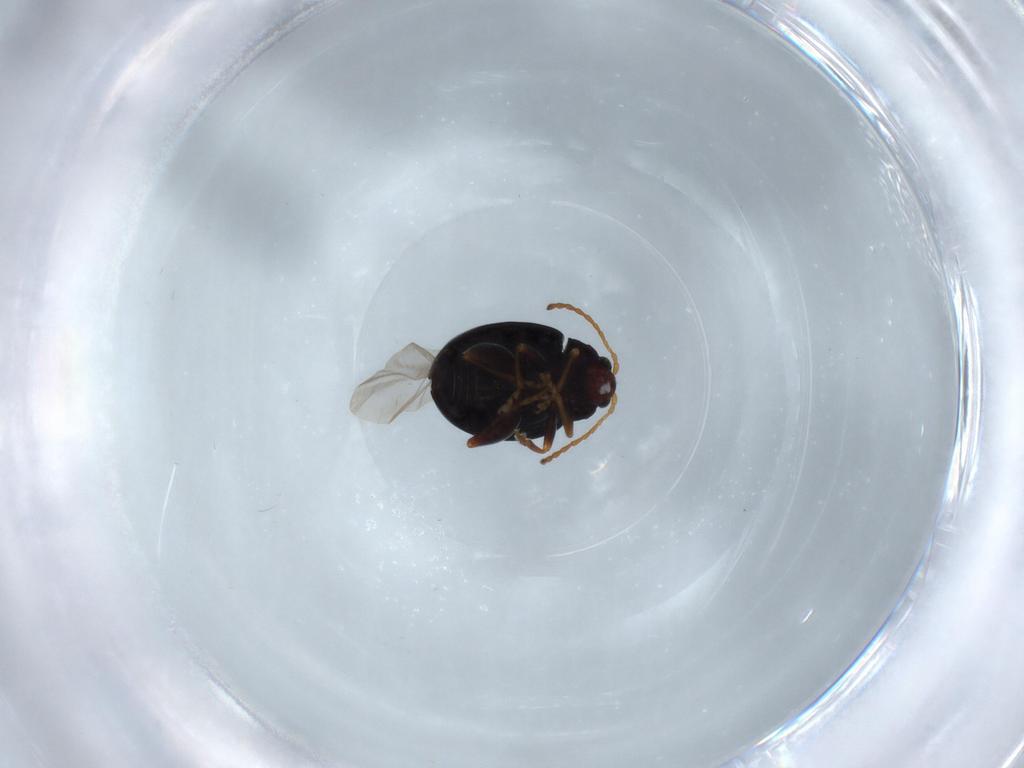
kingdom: Animalia
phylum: Arthropoda
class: Insecta
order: Coleoptera
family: Chrysomelidae
